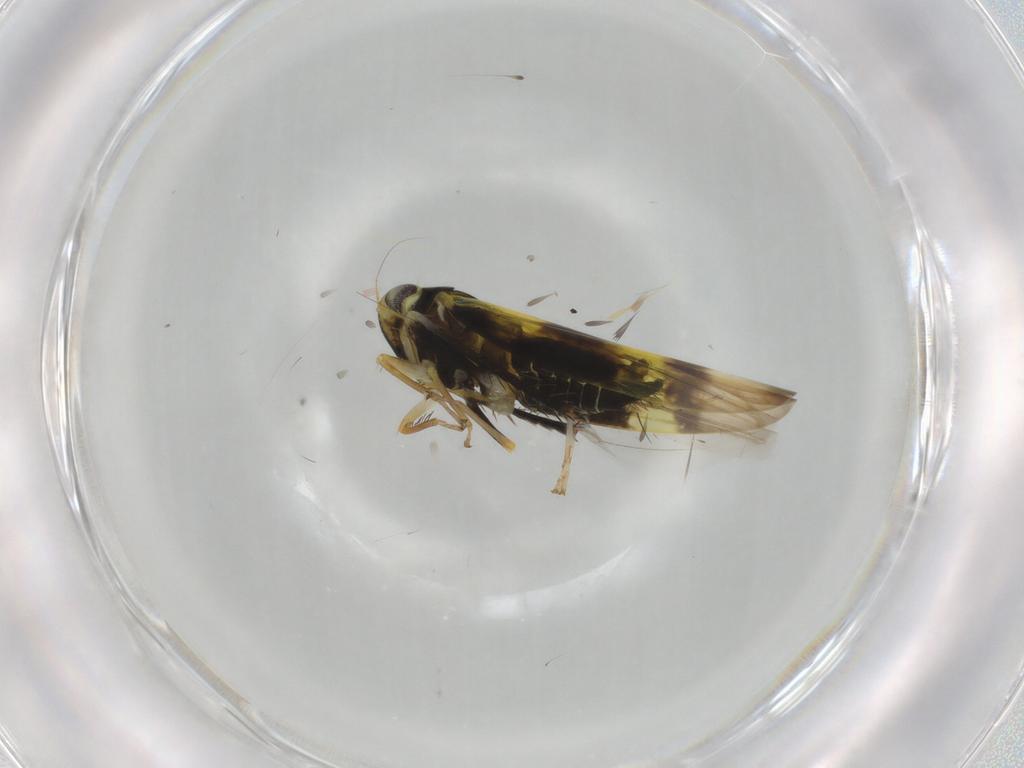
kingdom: Animalia
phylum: Arthropoda
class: Insecta
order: Hemiptera
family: Cicadellidae
